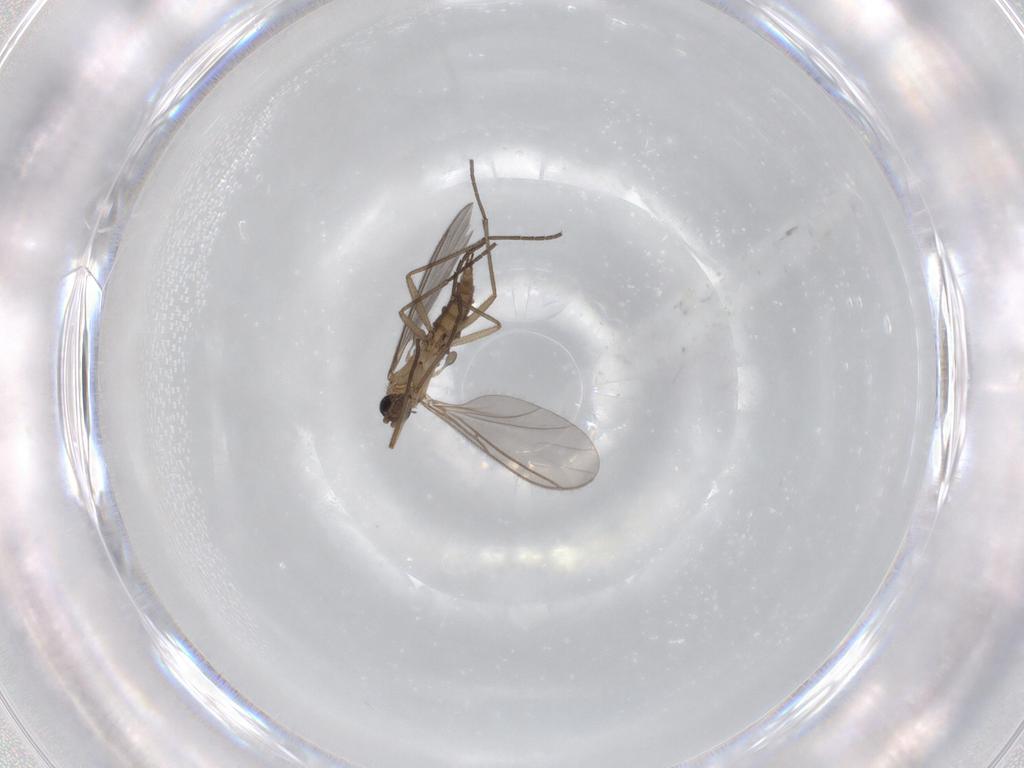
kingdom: Animalia
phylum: Arthropoda
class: Insecta
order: Diptera
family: Sciaridae
